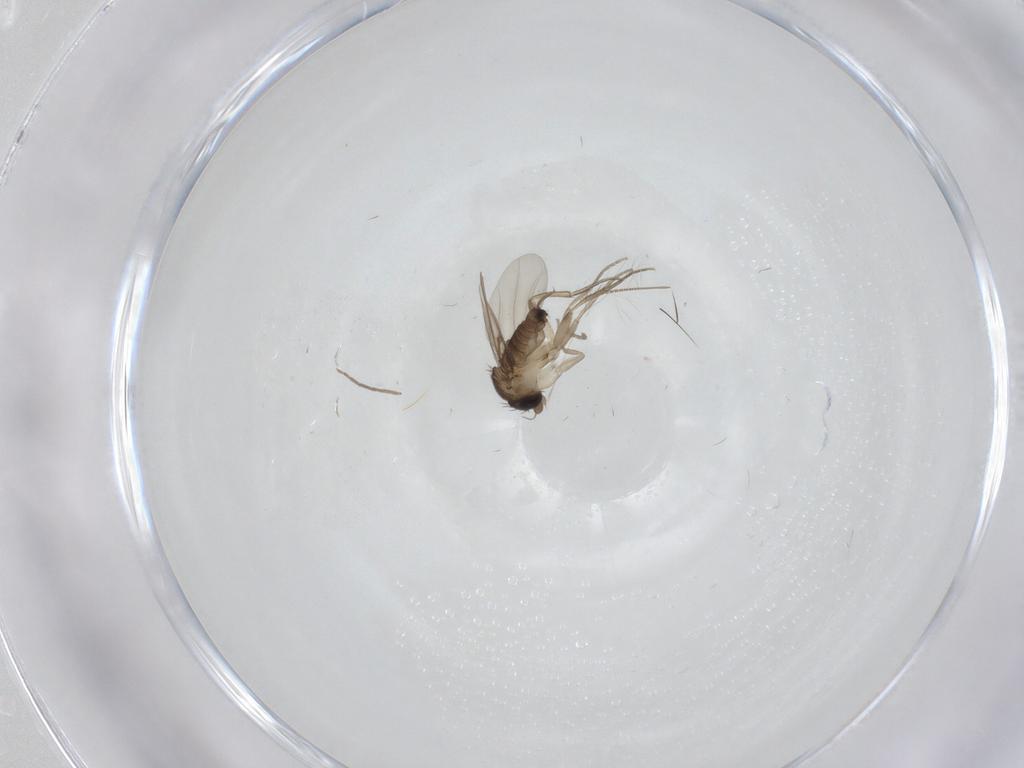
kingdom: Animalia
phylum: Arthropoda
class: Insecta
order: Diptera
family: Phoridae
